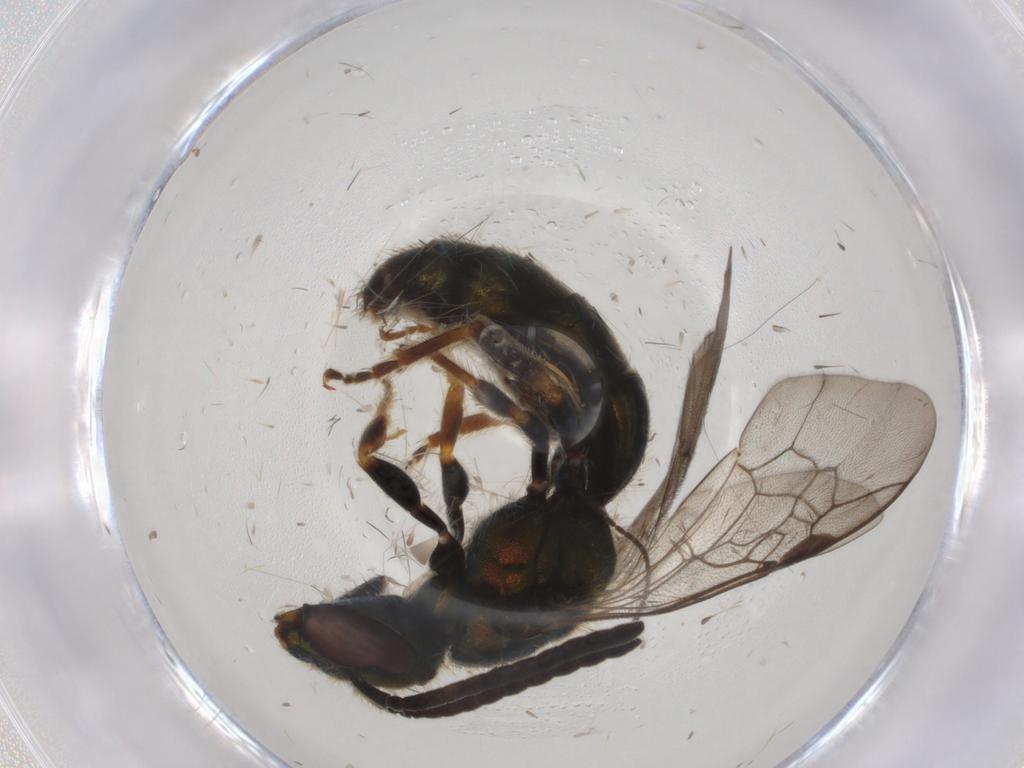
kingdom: Animalia
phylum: Arthropoda
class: Insecta
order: Hymenoptera
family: Halictidae
